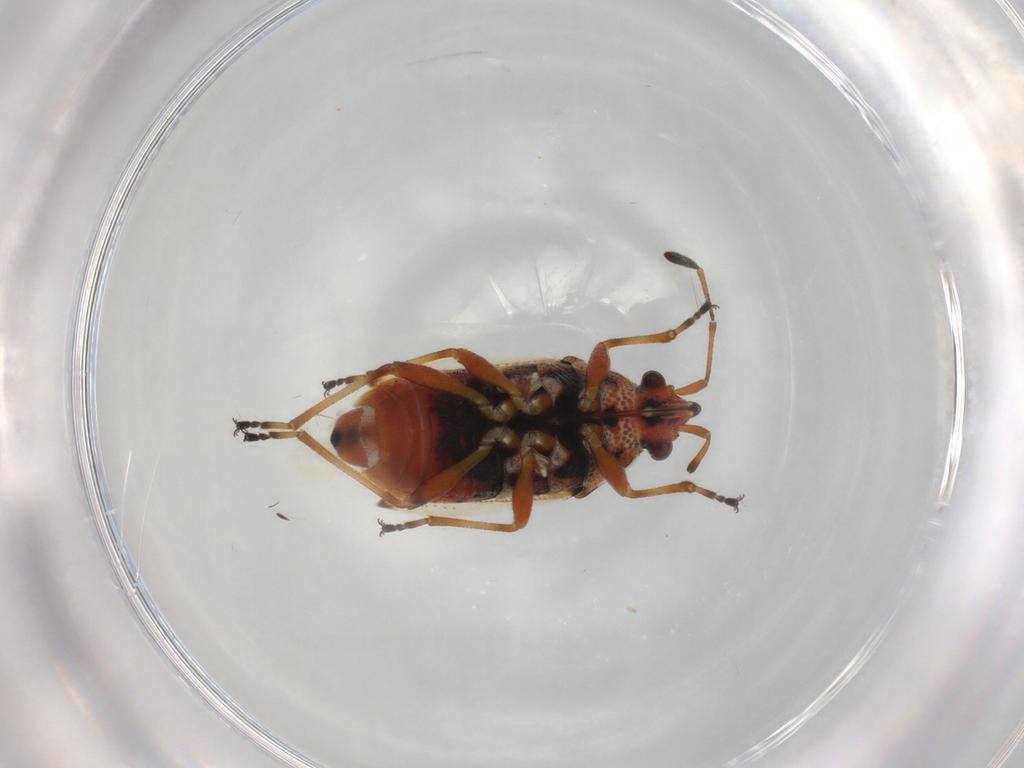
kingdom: Animalia
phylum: Arthropoda
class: Insecta
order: Hemiptera
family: Lygaeidae
